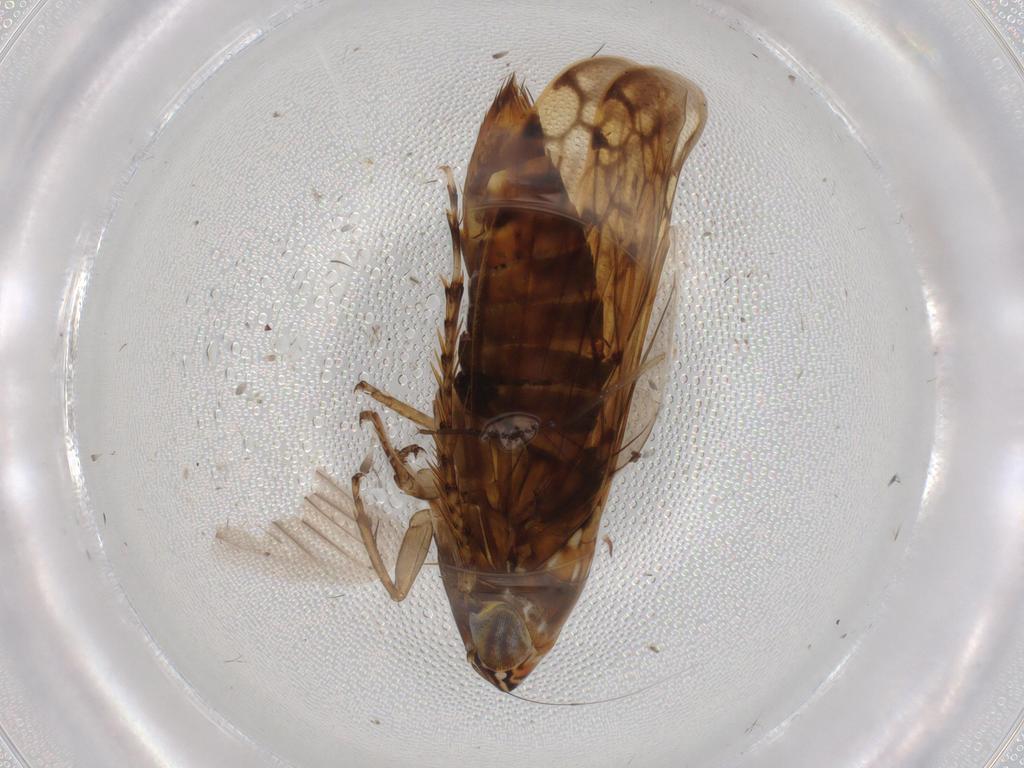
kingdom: Animalia
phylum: Arthropoda
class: Insecta
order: Hemiptera
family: Cicadellidae
